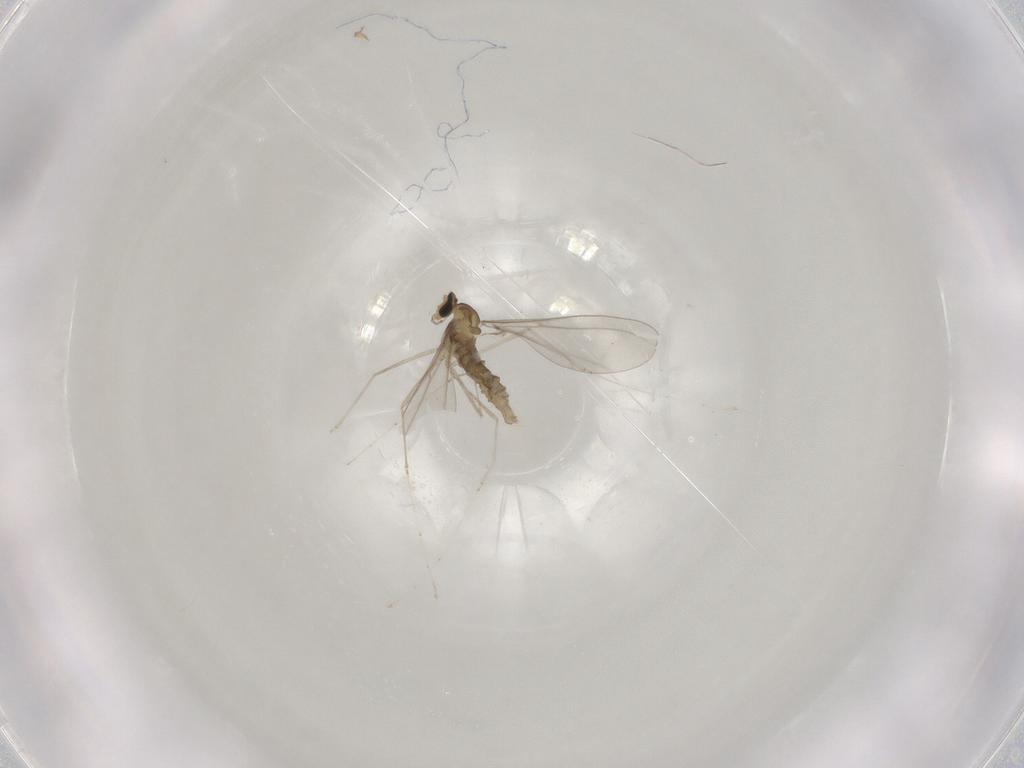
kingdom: Animalia
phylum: Arthropoda
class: Insecta
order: Diptera
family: Cecidomyiidae
